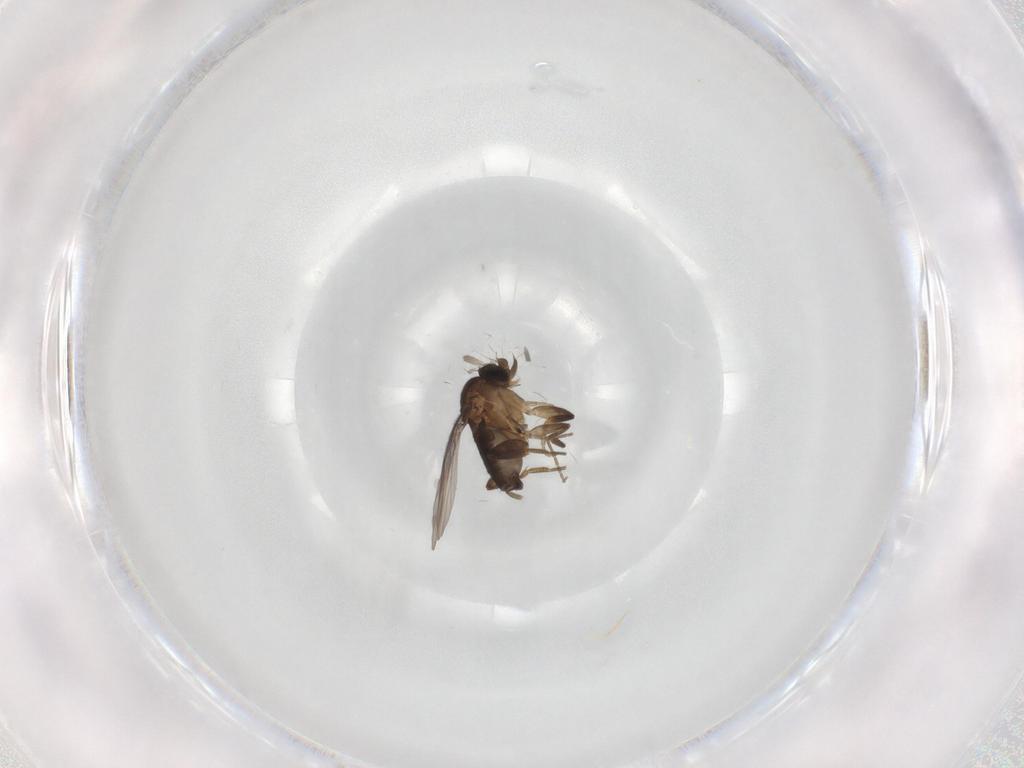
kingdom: Animalia
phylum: Arthropoda
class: Insecta
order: Diptera
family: Phoridae
